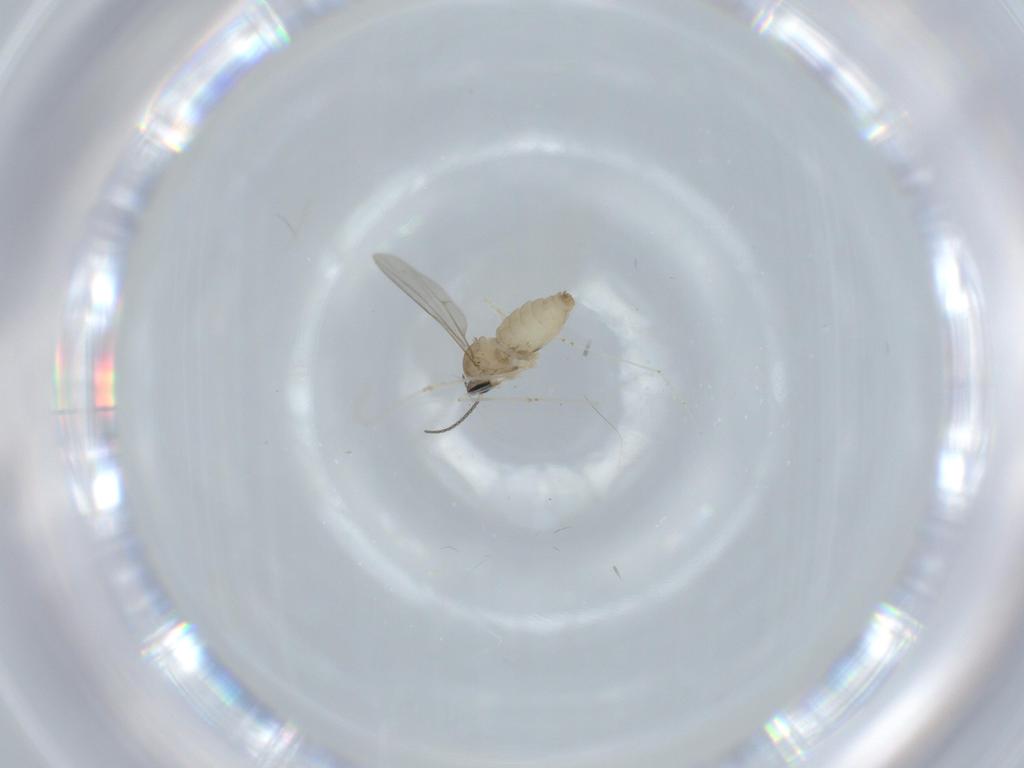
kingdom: Animalia
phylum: Arthropoda
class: Insecta
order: Diptera
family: Cecidomyiidae
